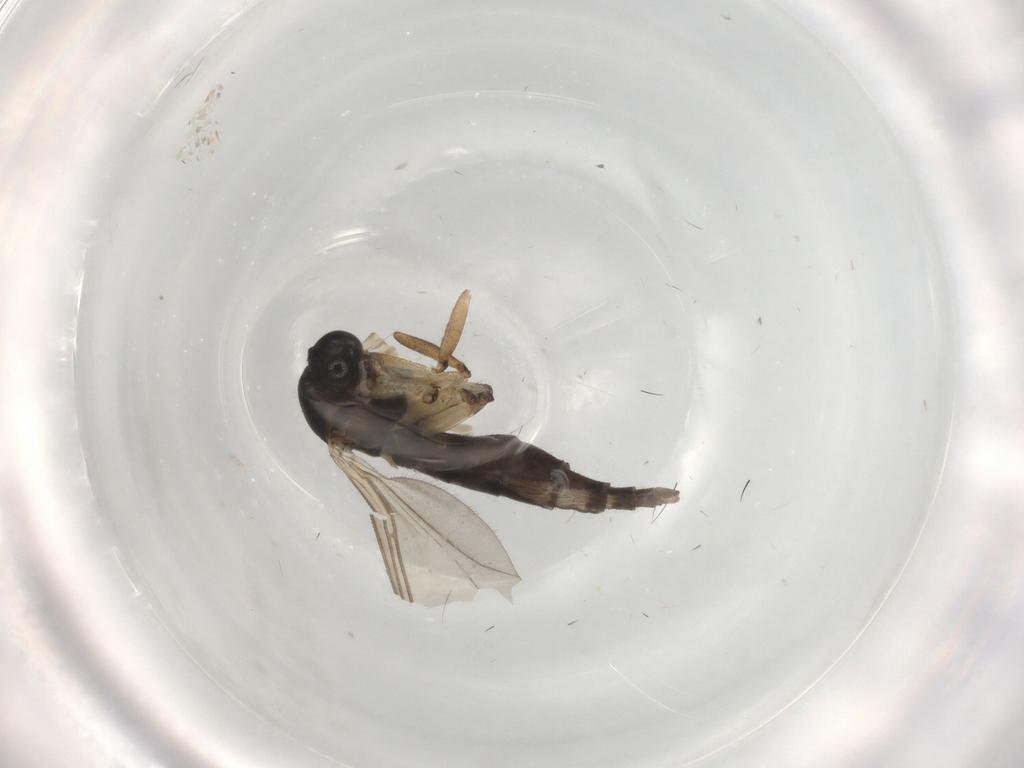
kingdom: Animalia
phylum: Arthropoda
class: Insecta
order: Diptera
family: Sciaridae
